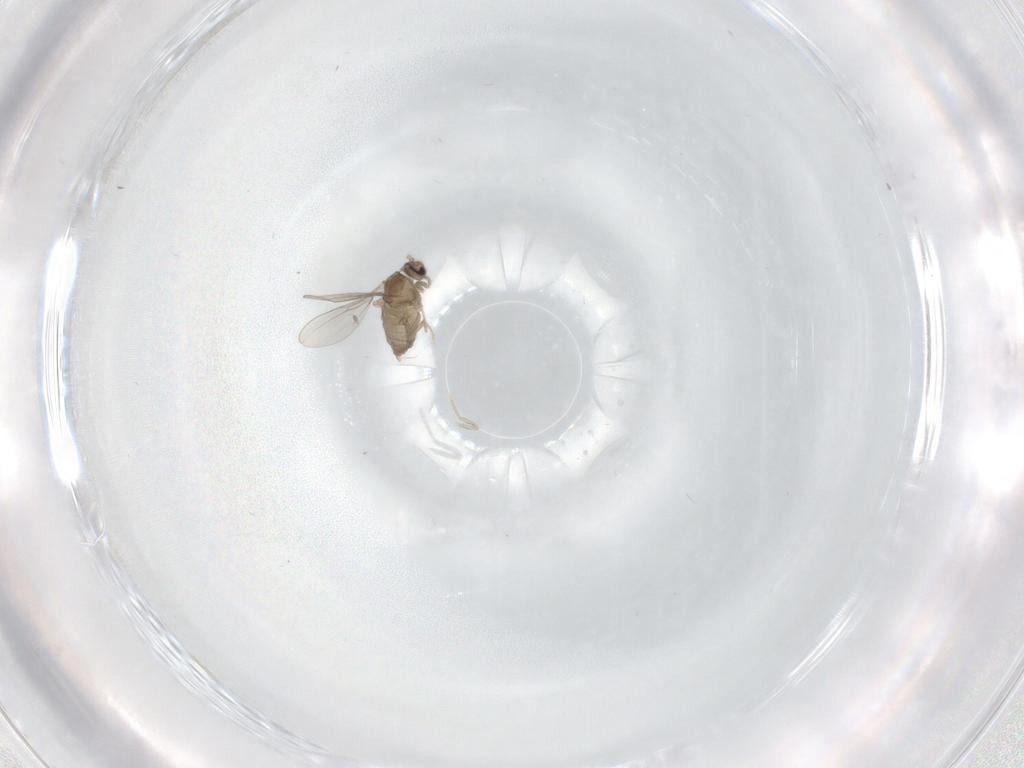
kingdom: Animalia
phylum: Arthropoda
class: Insecta
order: Diptera
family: Cecidomyiidae
